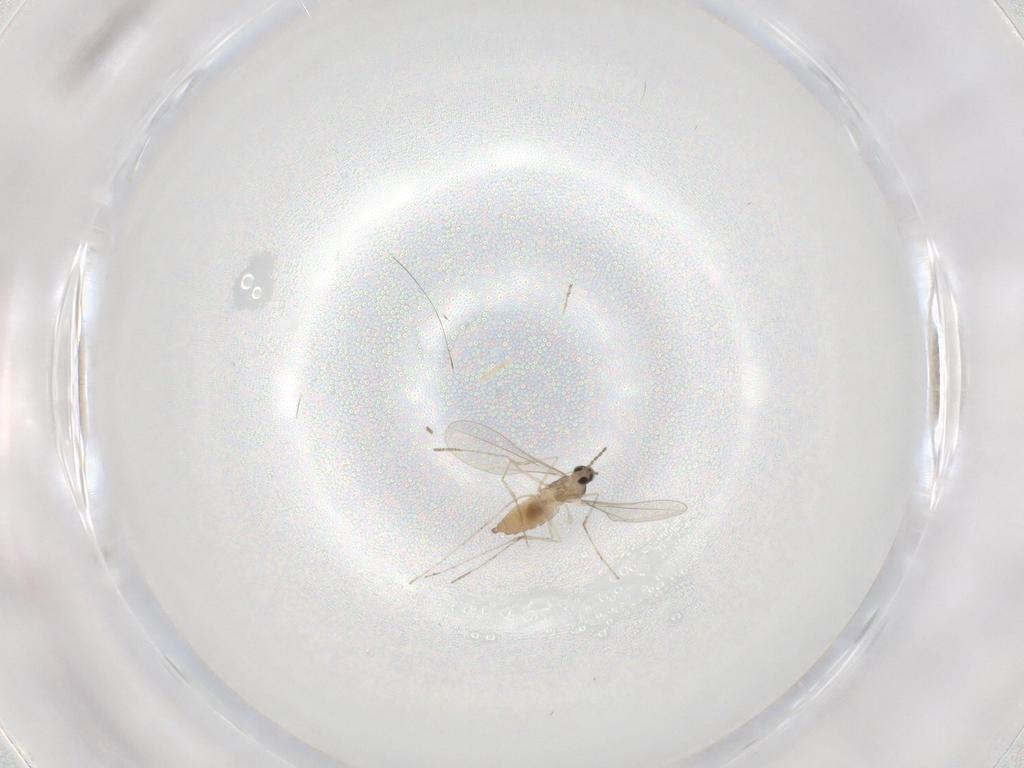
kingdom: Animalia
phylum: Arthropoda
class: Insecta
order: Diptera
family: Cecidomyiidae
